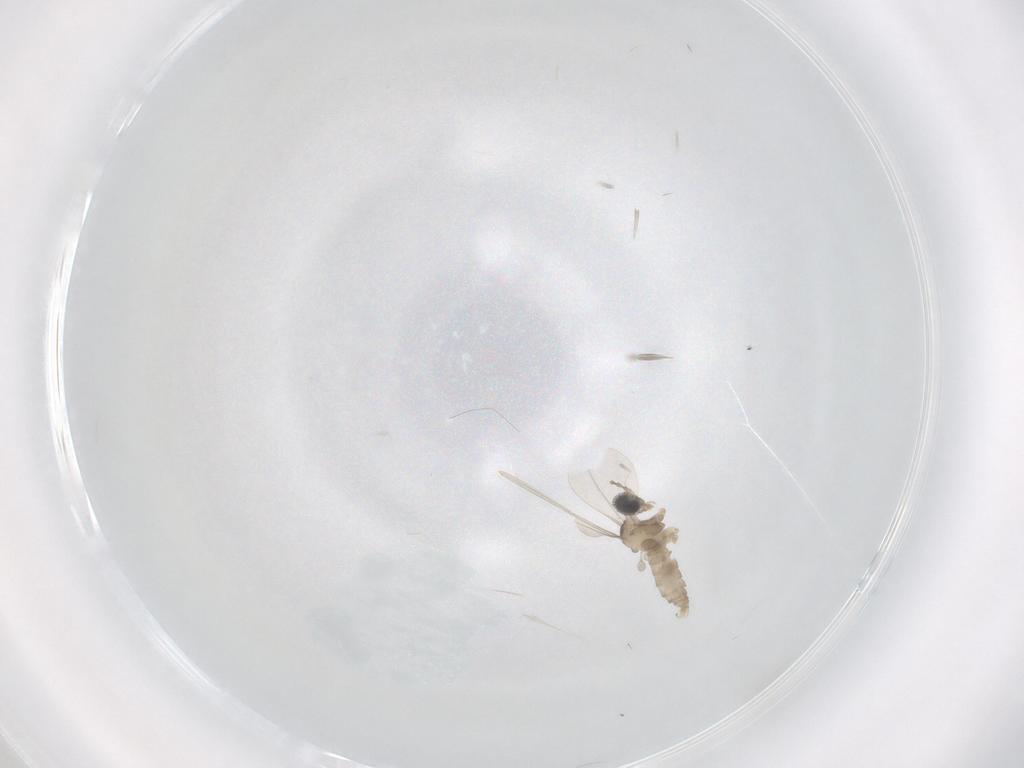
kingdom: Animalia
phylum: Arthropoda
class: Insecta
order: Diptera
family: Cecidomyiidae
